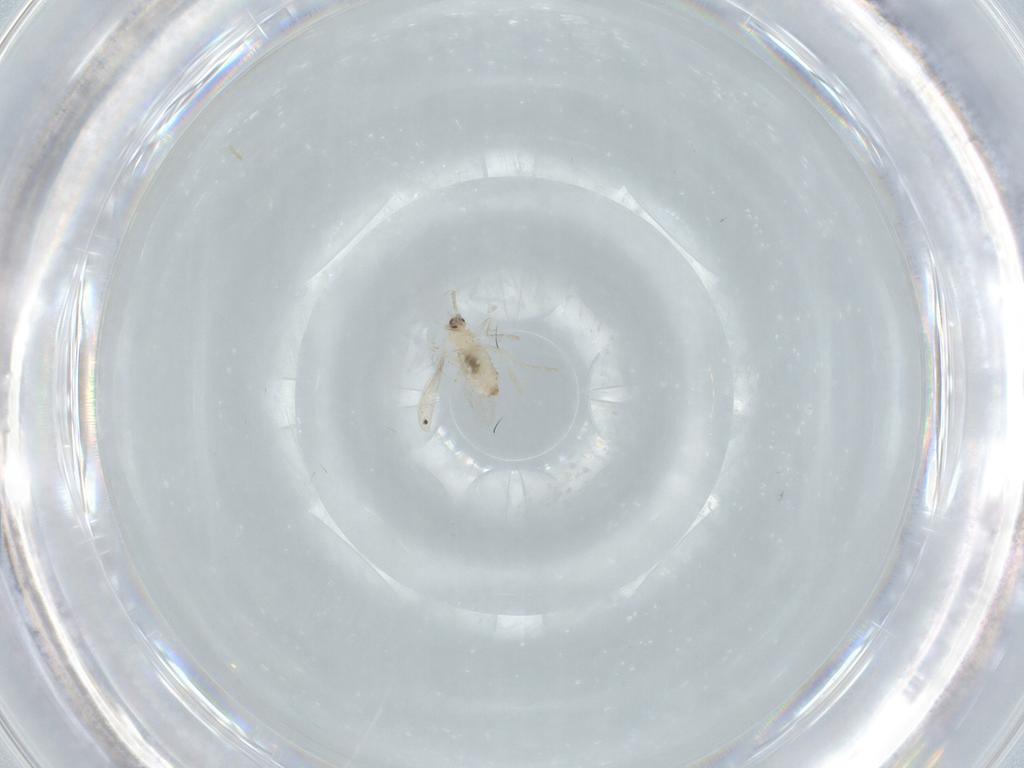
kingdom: Animalia
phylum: Arthropoda
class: Insecta
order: Diptera
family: Cecidomyiidae
